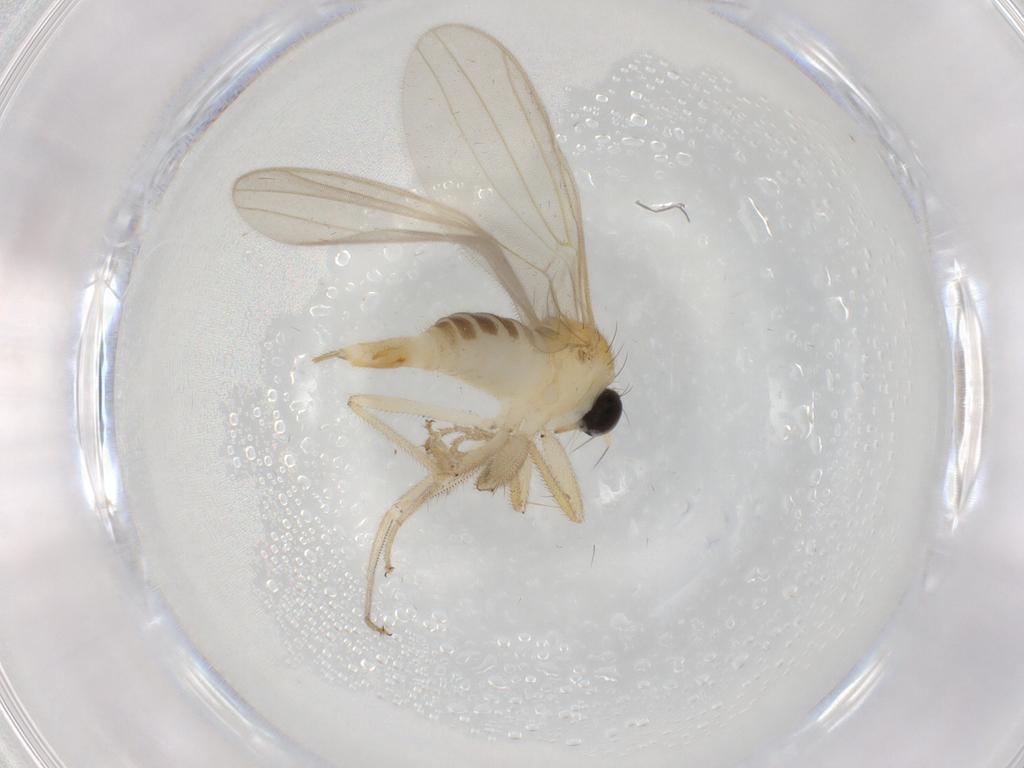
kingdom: Animalia
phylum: Arthropoda
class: Insecta
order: Diptera
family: Hybotidae
